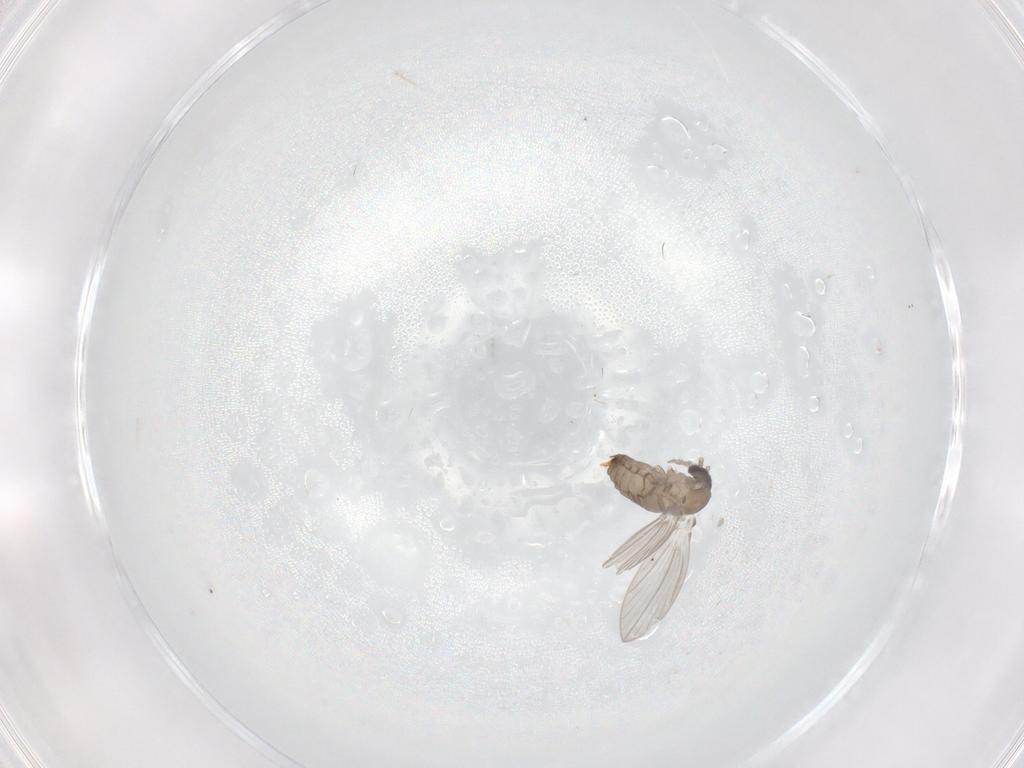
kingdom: Animalia
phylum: Arthropoda
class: Insecta
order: Diptera
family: Psychodidae
